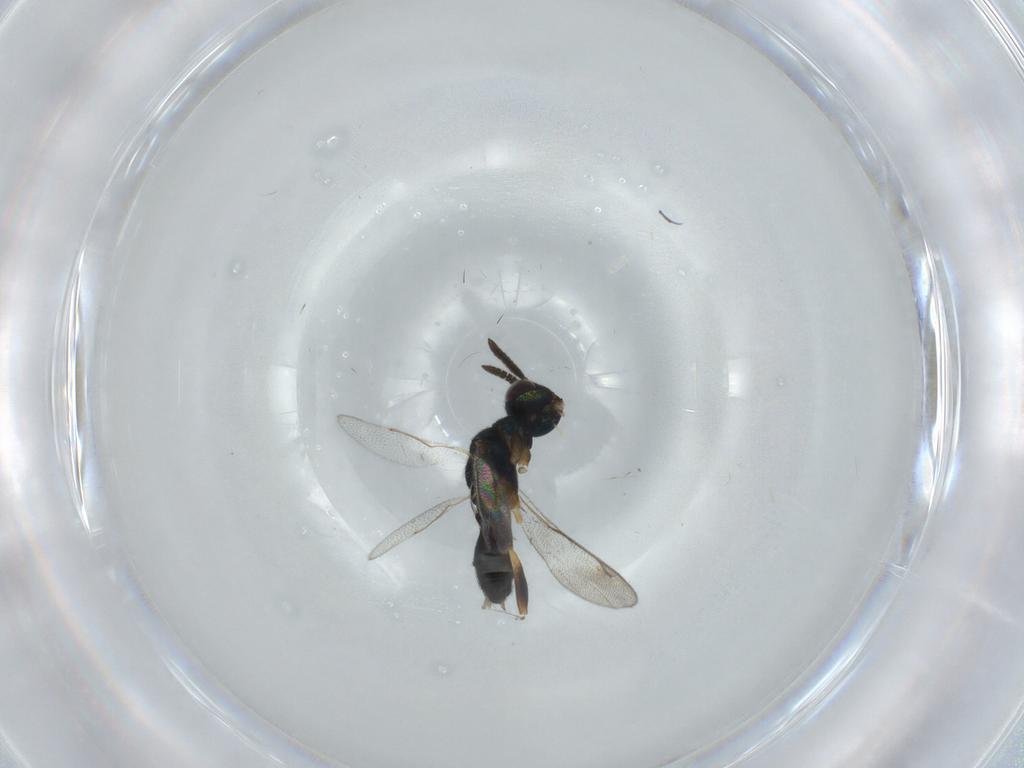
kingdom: Animalia
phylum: Arthropoda
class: Insecta
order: Hymenoptera
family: Cleonyminae
